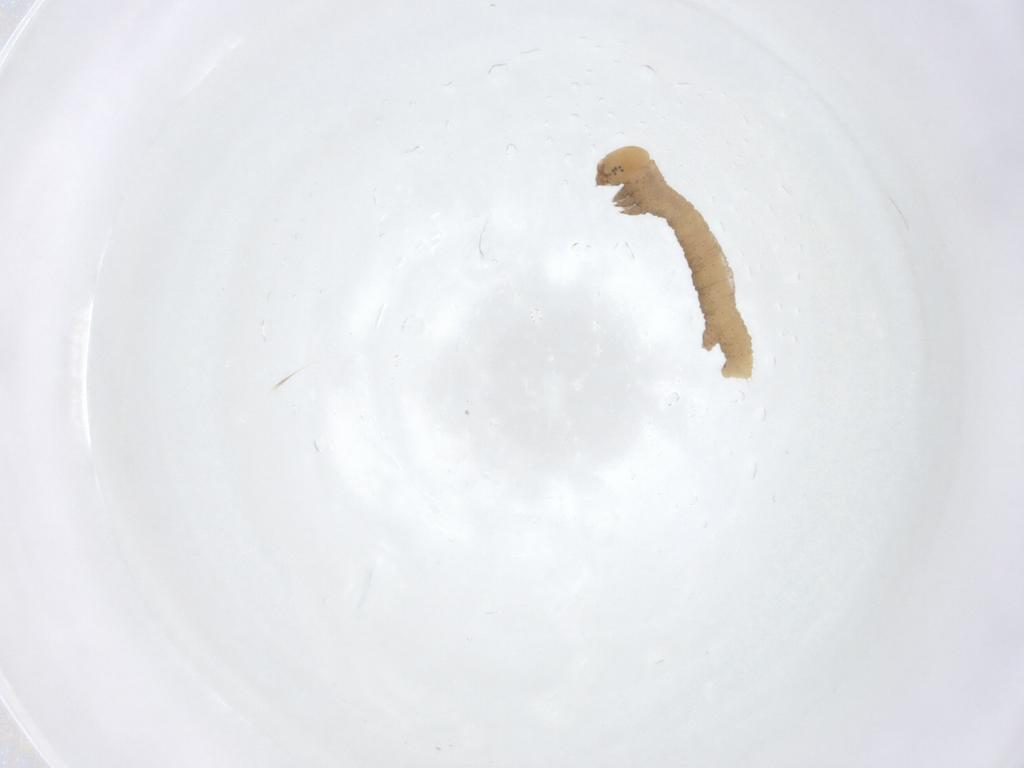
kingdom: Animalia
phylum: Arthropoda
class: Insecta
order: Lepidoptera
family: Geometridae
